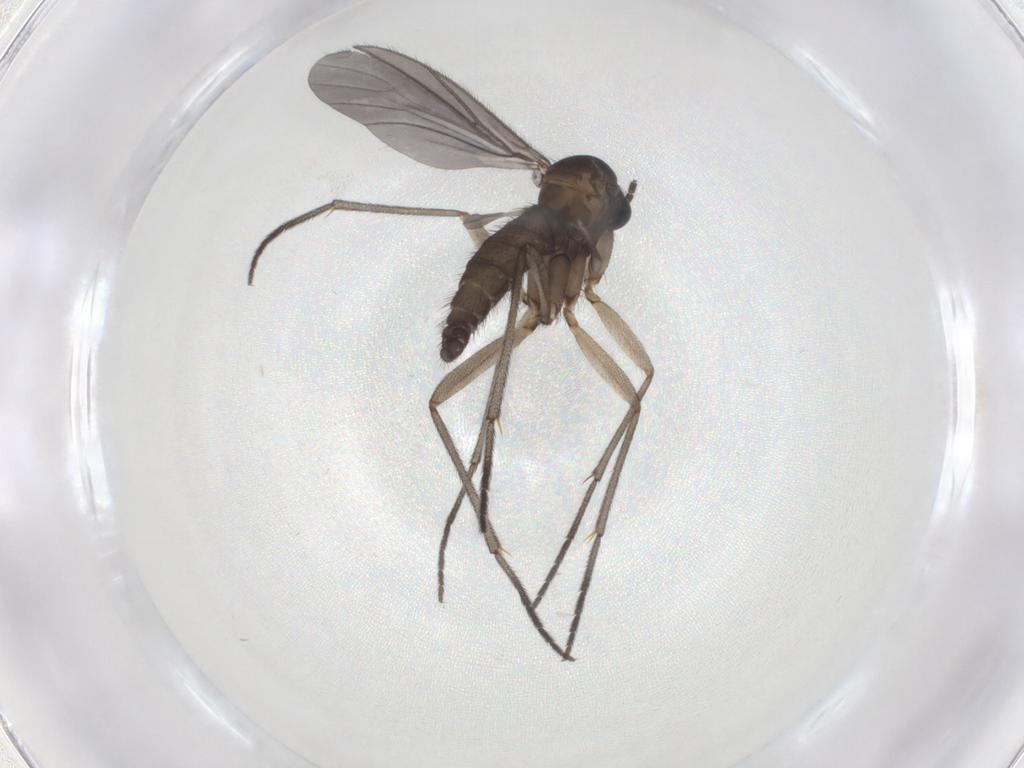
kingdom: Animalia
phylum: Arthropoda
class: Insecta
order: Diptera
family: Sciaridae
